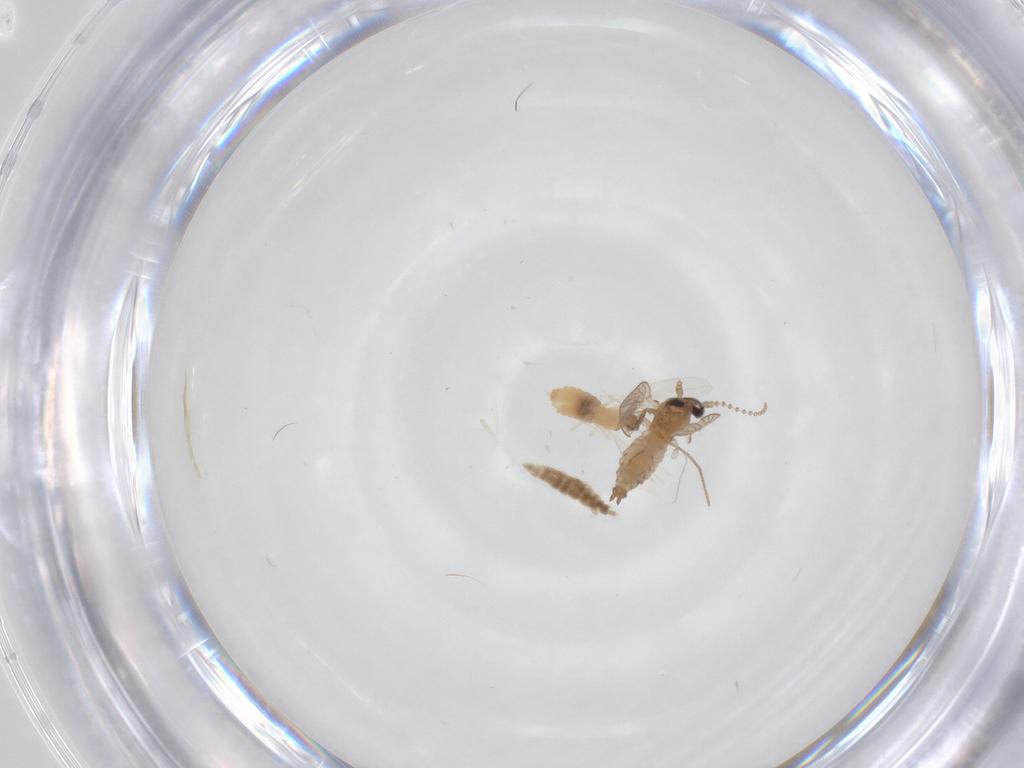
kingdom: Animalia
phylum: Arthropoda
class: Insecta
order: Diptera
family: Psychodidae
